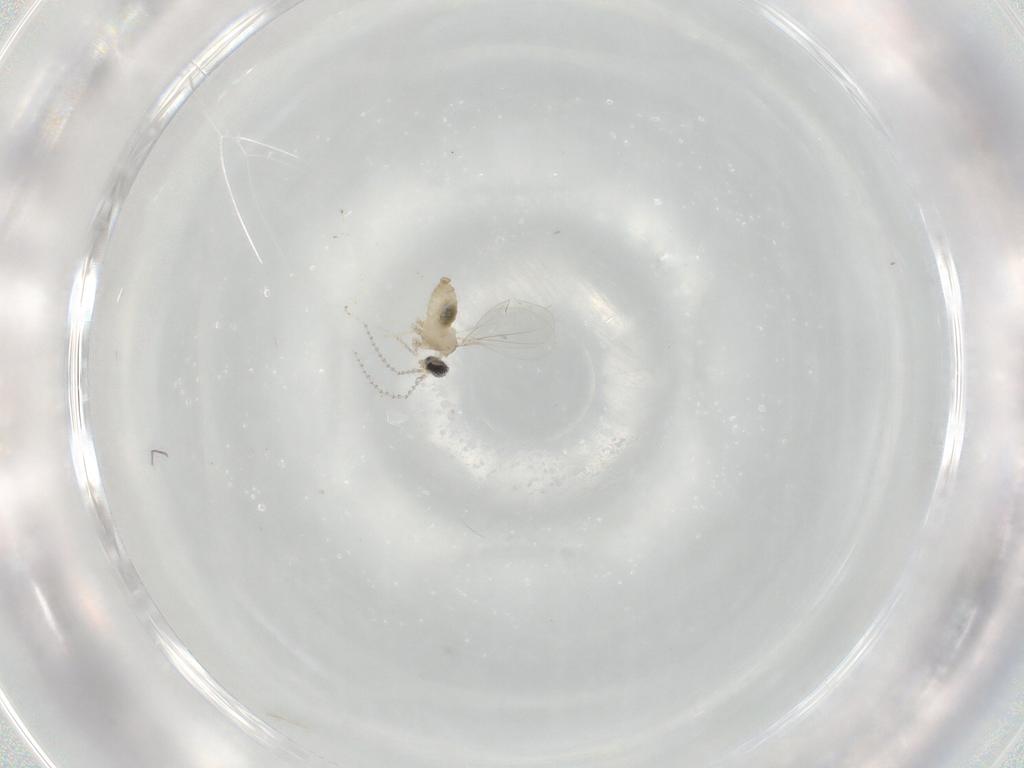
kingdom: Animalia
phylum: Arthropoda
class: Insecta
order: Diptera
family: Cecidomyiidae
